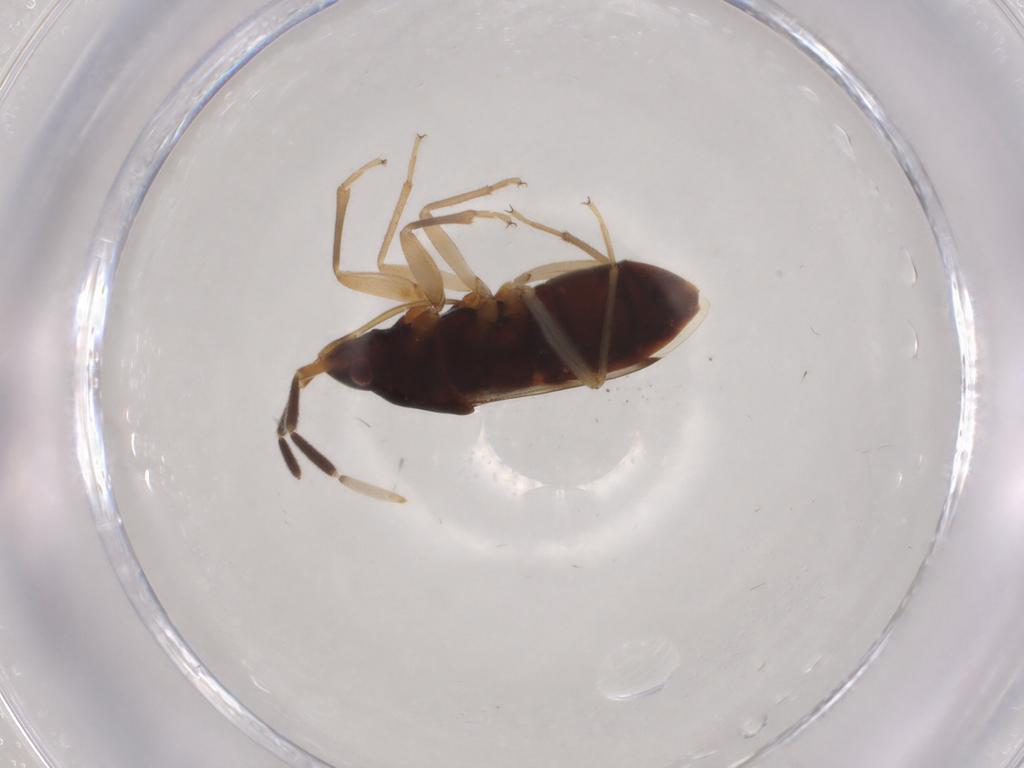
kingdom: Animalia
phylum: Arthropoda
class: Insecta
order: Hemiptera
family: Rhyparochromidae
